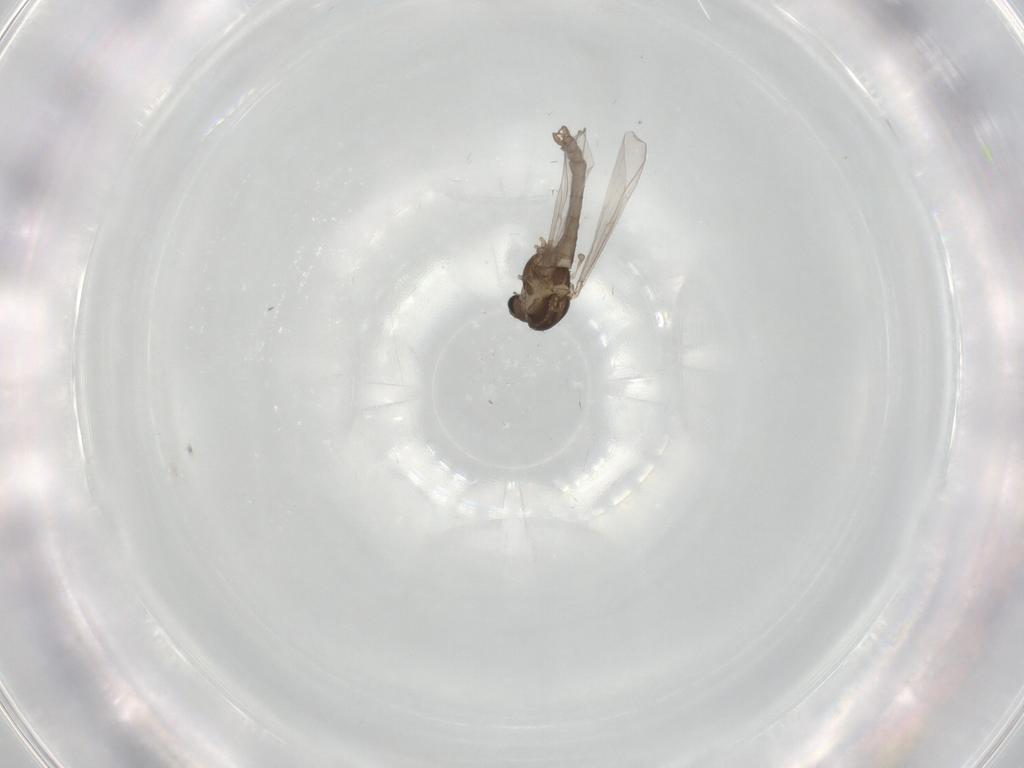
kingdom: Animalia
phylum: Arthropoda
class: Insecta
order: Diptera
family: Chironomidae
